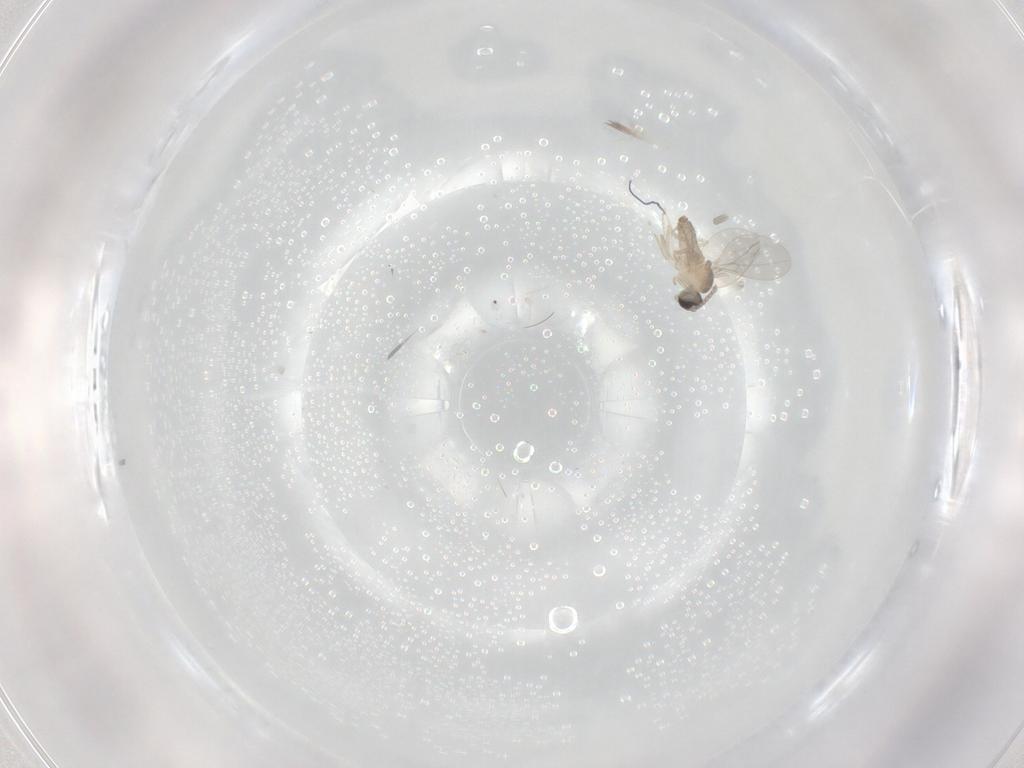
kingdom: Animalia
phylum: Arthropoda
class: Insecta
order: Diptera
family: Cecidomyiidae
